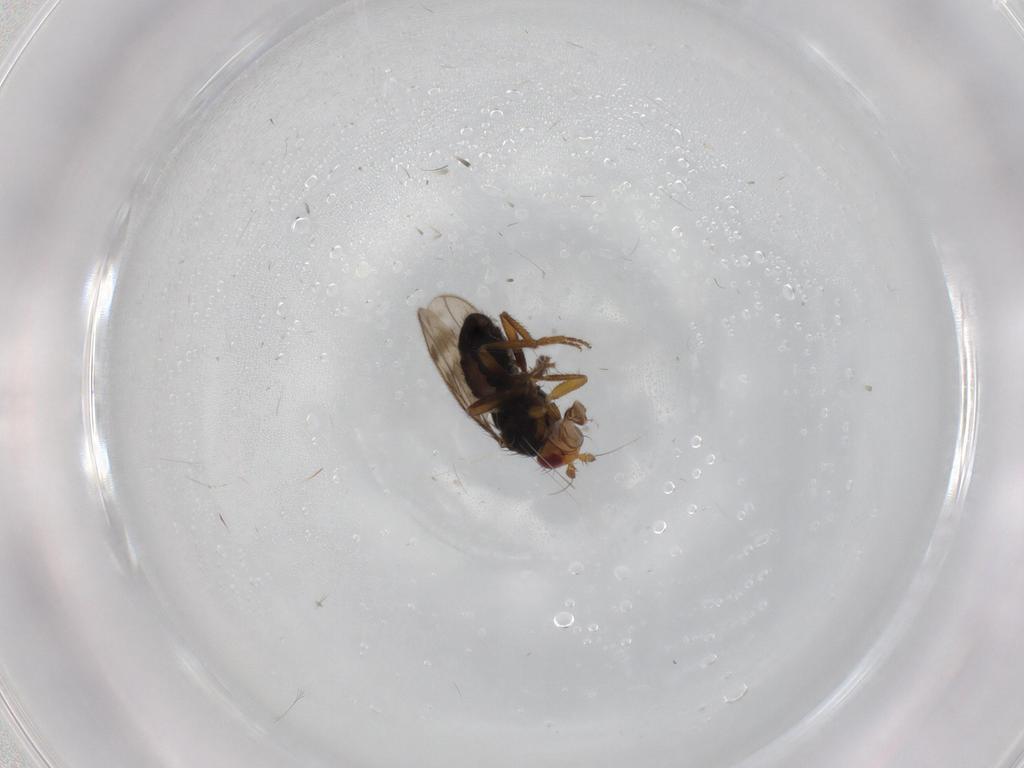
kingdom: Animalia
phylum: Arthropoda
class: Insecta
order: Diptera
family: Sphaeroceridae
